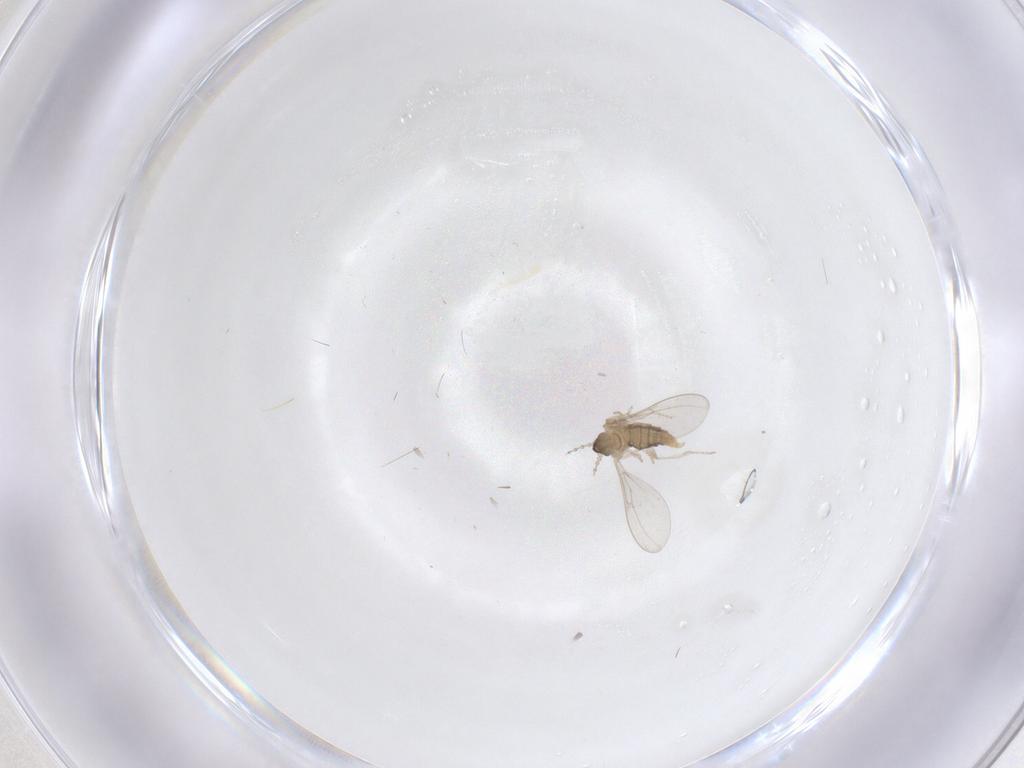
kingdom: Animalia
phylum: Arthropoda
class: Insecta
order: Diptera
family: Cecidomyiidae
